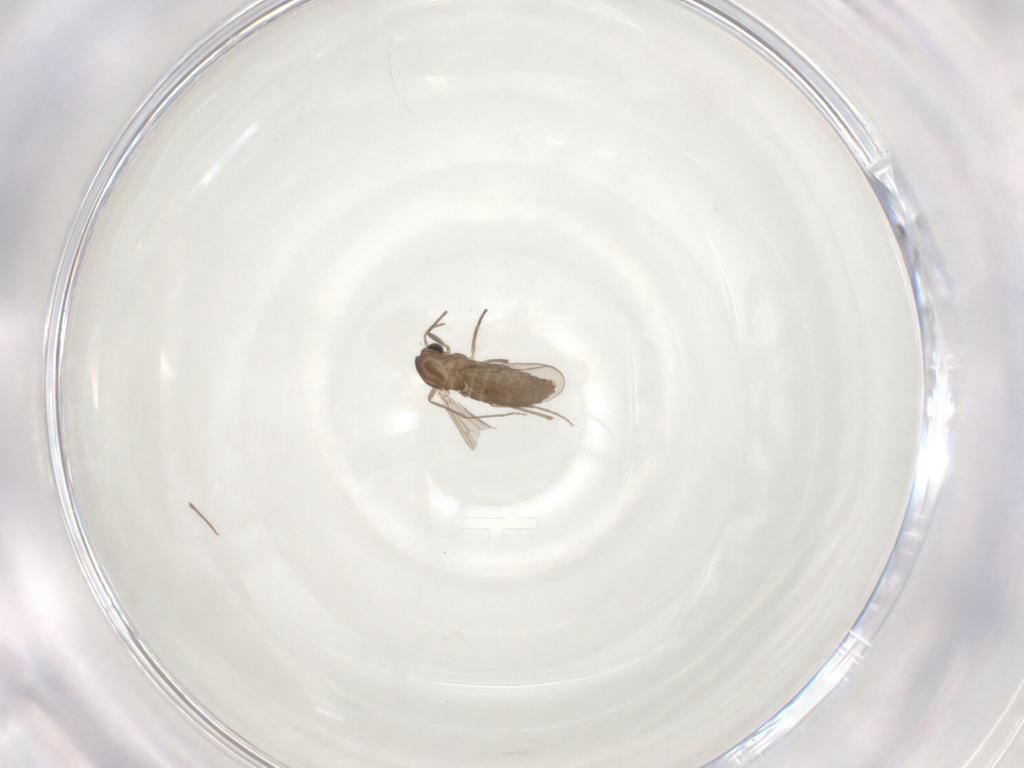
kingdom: Animalia
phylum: Arthropoda
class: Insecta
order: Diptera
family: Chironomidae
